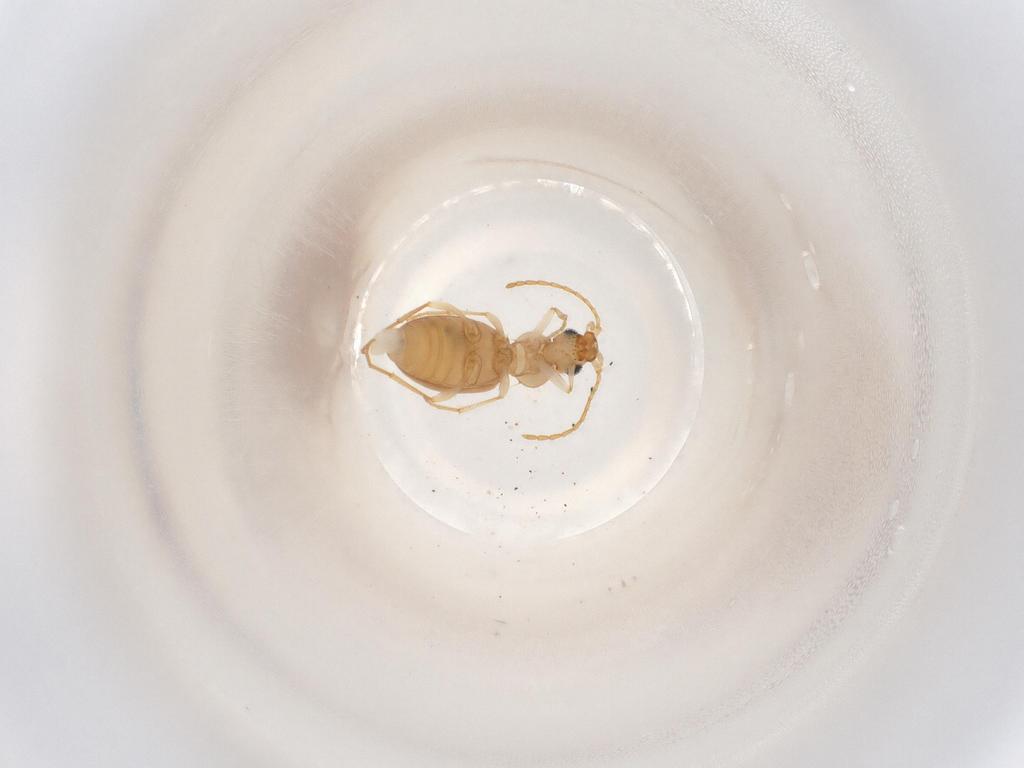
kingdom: Animalia
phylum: Arthropoda
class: Insecta
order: Coleoptera
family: Anthicidae
